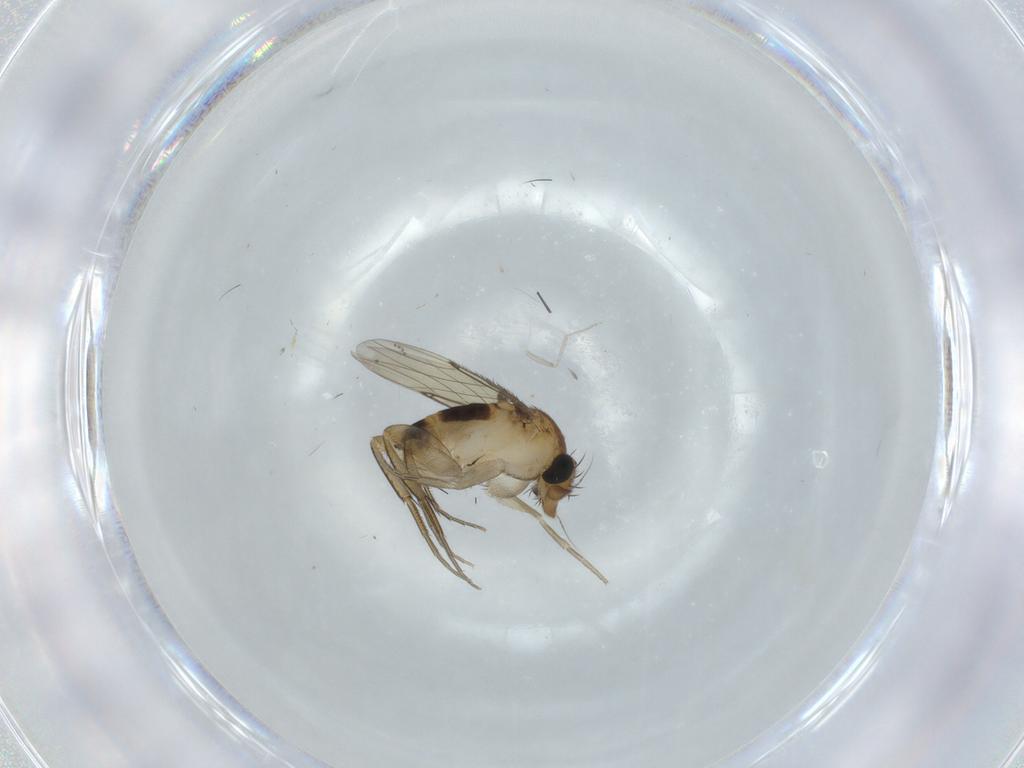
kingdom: Animalia
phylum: Arthropoda
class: Insecta
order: Diptera
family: Phoridae
